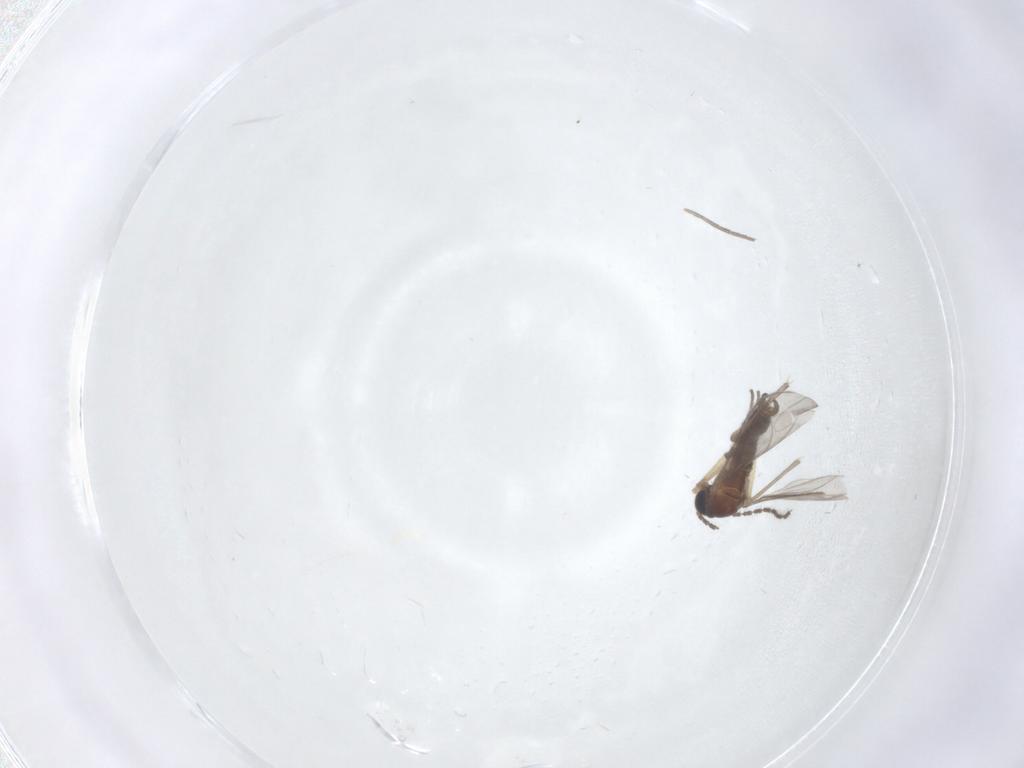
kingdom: Animalia
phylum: Arthropoda
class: Insecta
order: Diptera
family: Sciaridae
